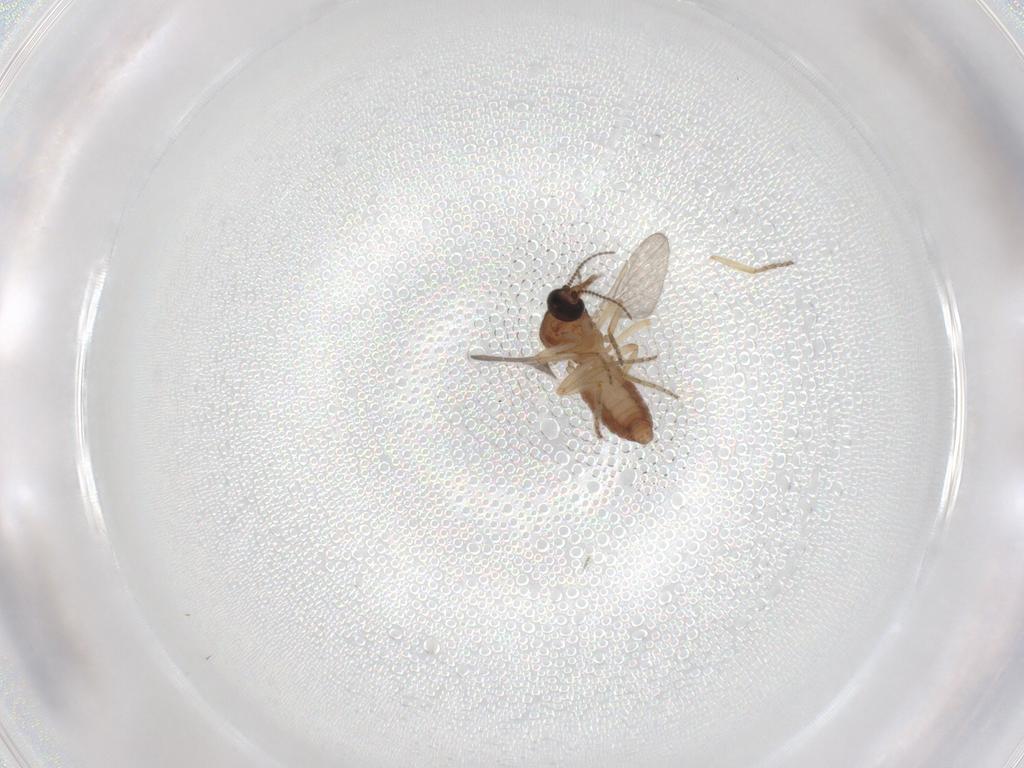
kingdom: Animalia
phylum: Arthropoda
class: Insecta
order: Diptera
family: Ceratopogonidae
